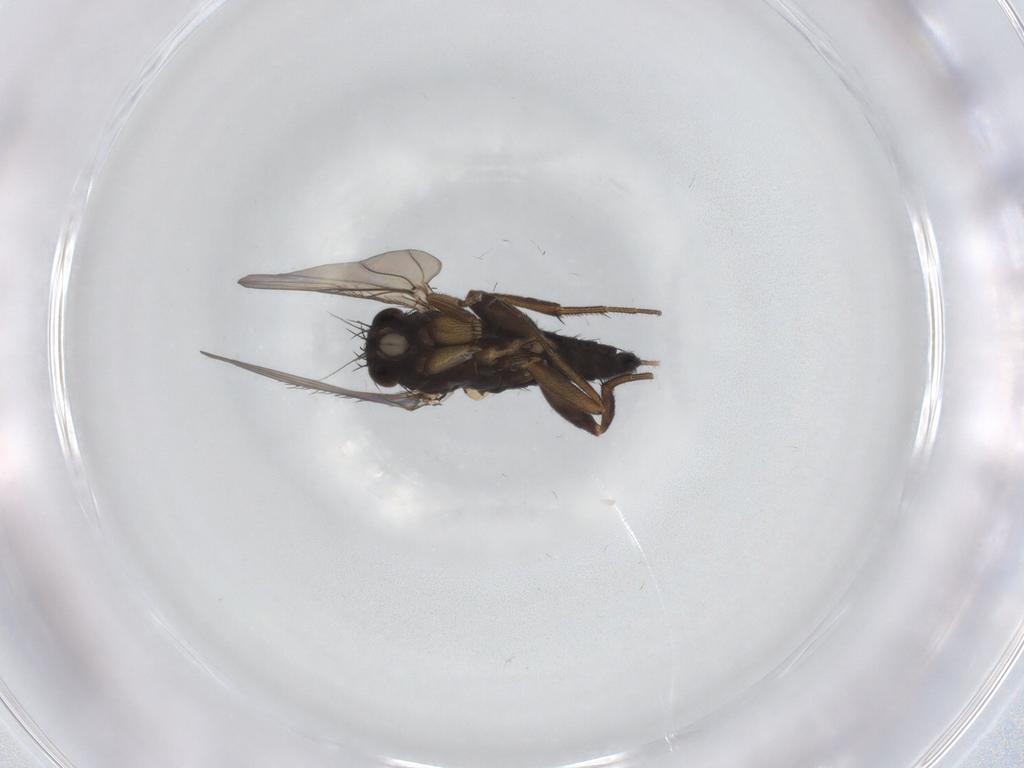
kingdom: Animalia
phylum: Arthropoda
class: Insecta
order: Diptera
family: Phoridae
